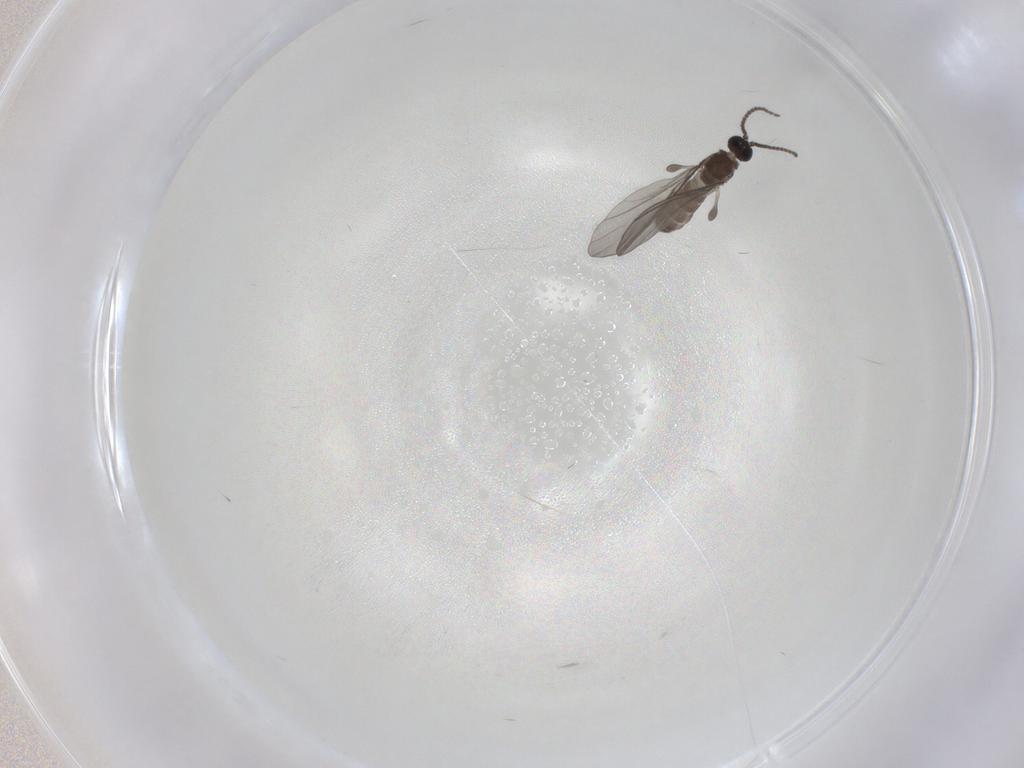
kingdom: Animalia
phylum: Arthropoda
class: Insecta
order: Diptera
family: Sciaridae
